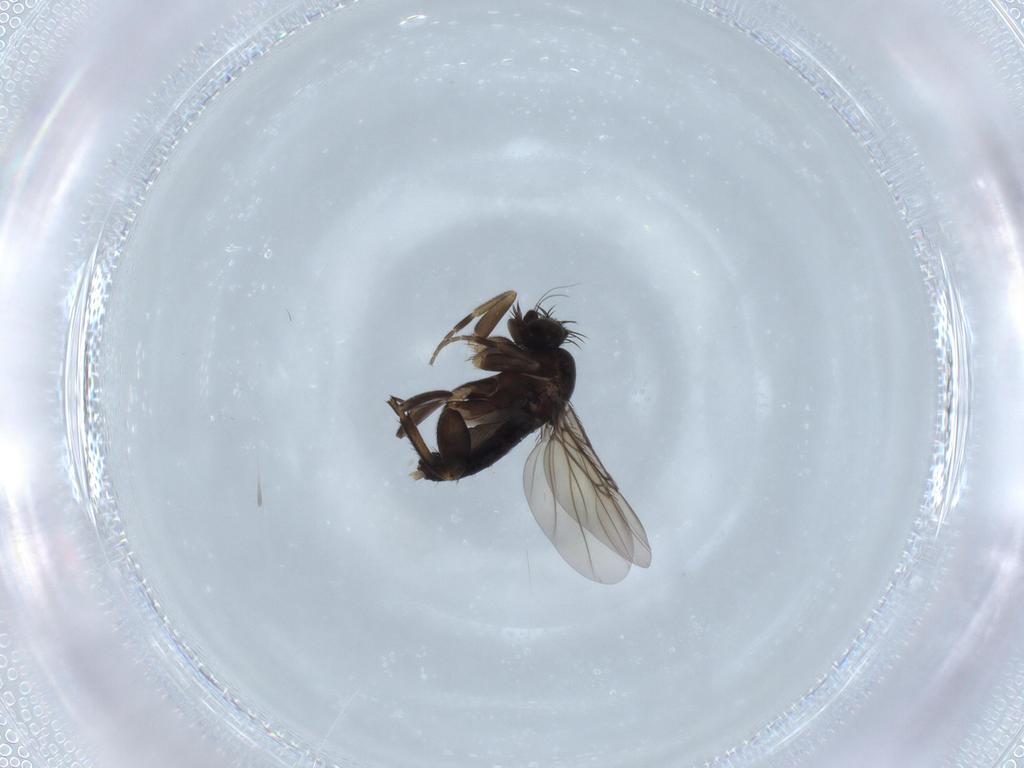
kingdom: Animalia
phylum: Arthropoda
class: Insecta
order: Diptera
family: Phoridae
